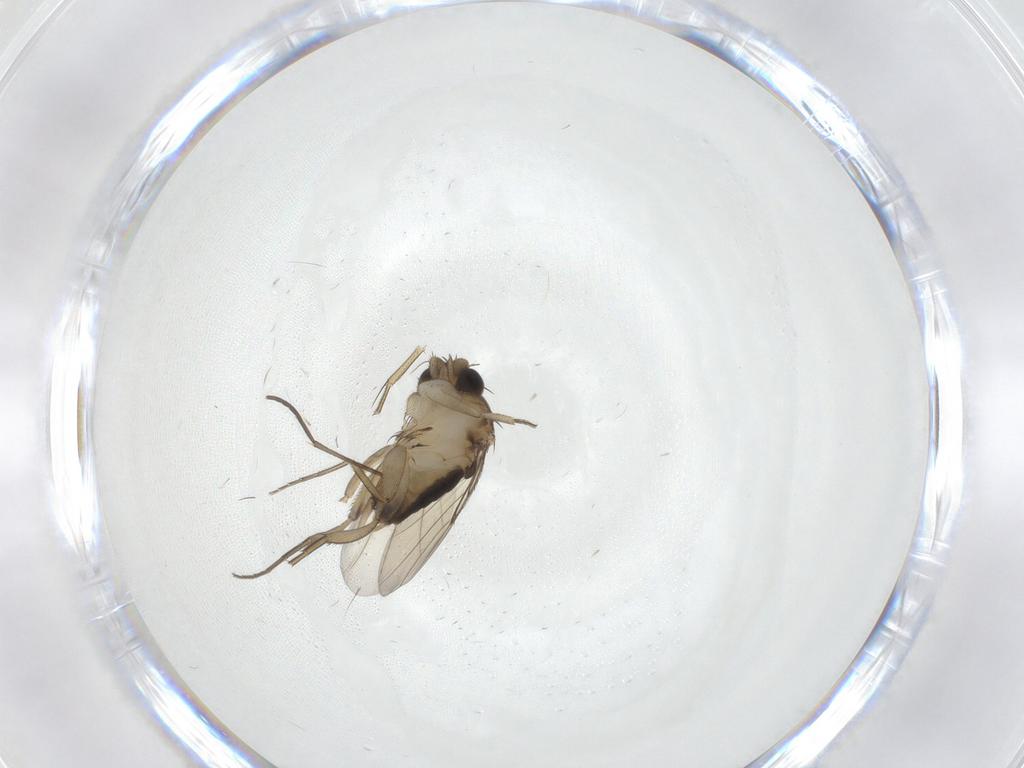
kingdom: Animalia
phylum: Arthropoda
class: Insecta
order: Diptera
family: Phoridae
